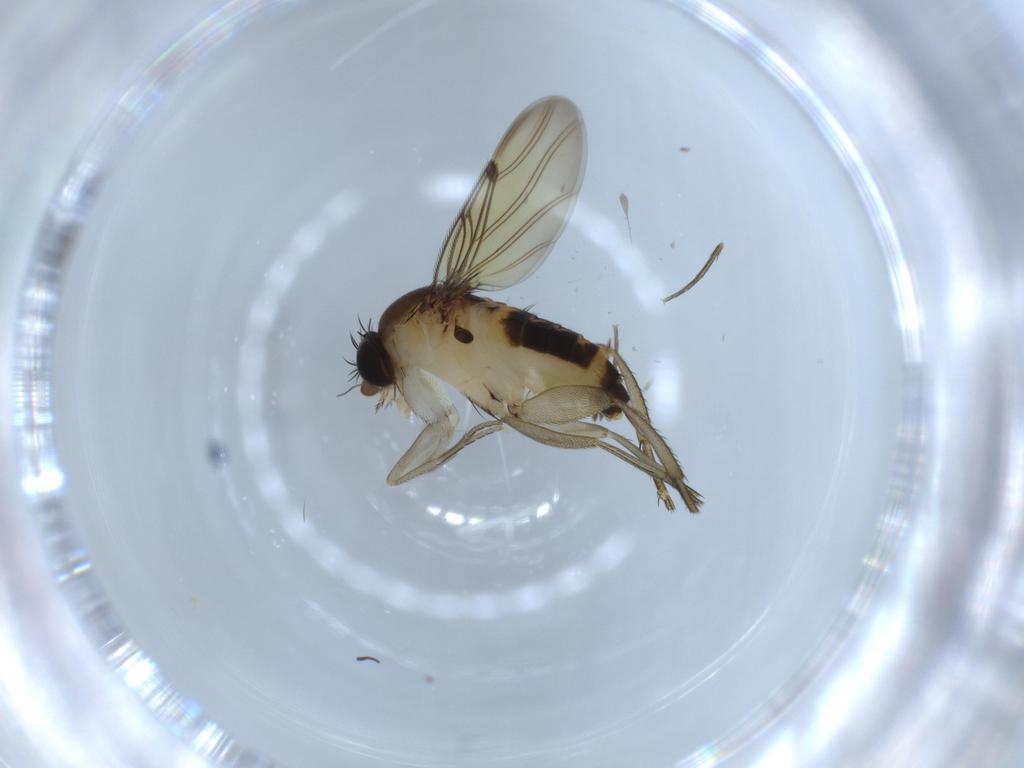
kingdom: Animalia
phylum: Arthropoda
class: Insecta
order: Diptera
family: Phoridae
